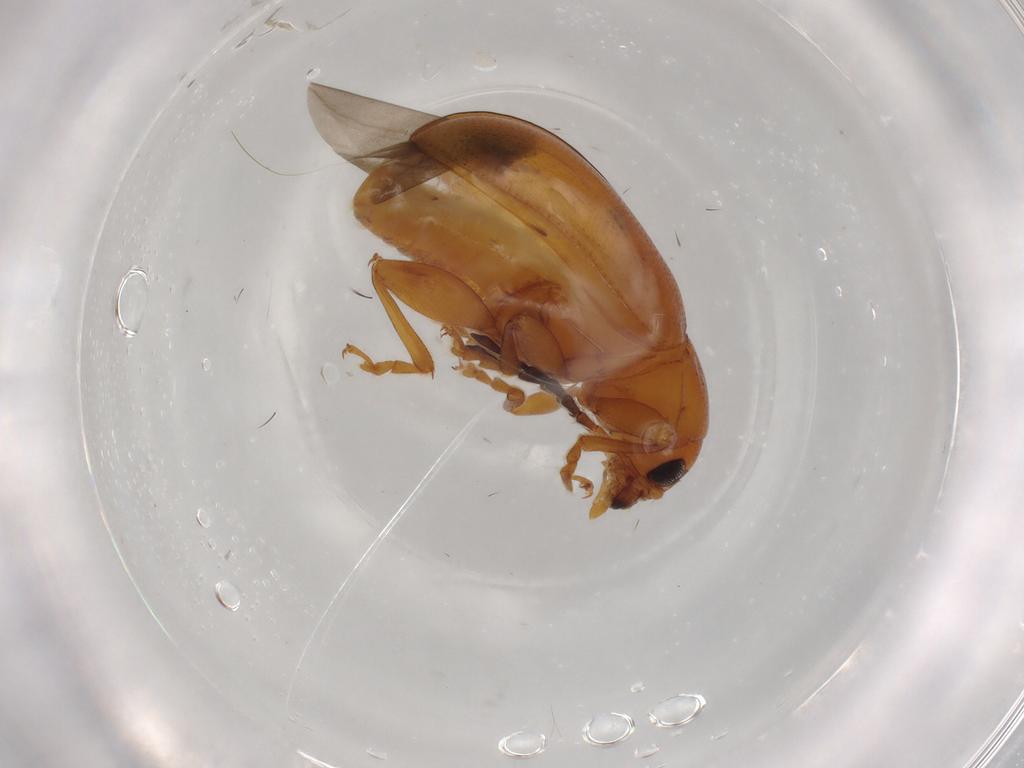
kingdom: Animalia
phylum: Arthropoda
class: Insecta
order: Coleoptera
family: Chrysomelidae
